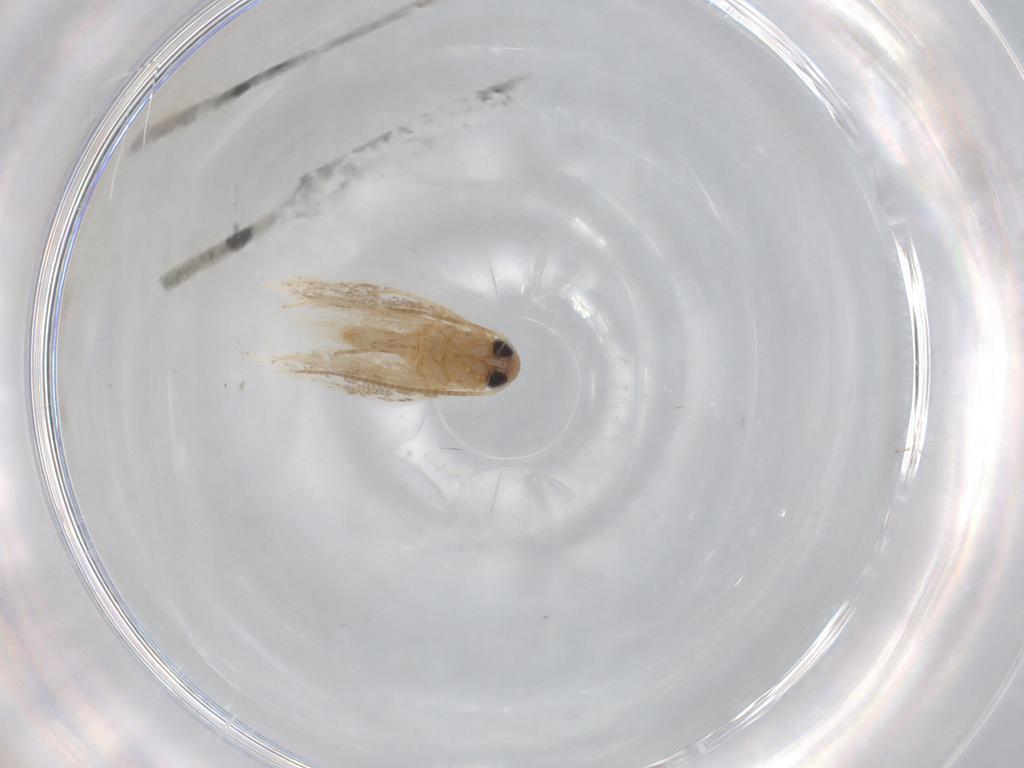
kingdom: Animalia
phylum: Arthropoda
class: Insecta
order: Lepidoptera
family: Gracillariidae
